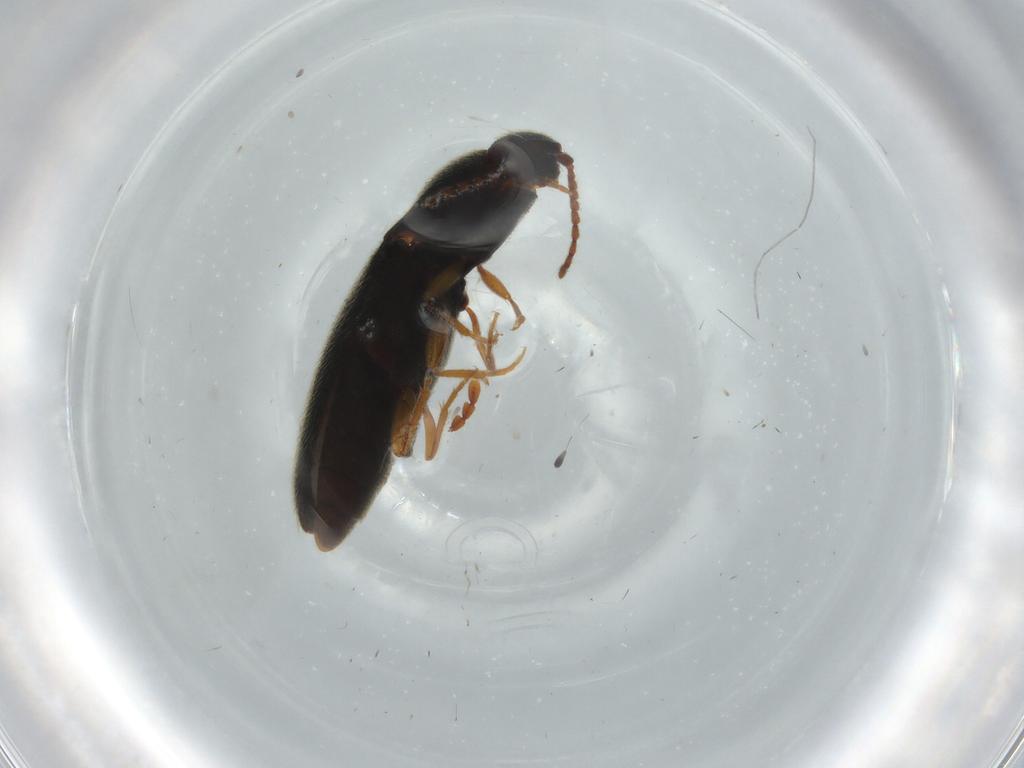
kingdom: Animalia
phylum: Arthropoda
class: Insecta
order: Coleoptera
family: Elateridae
